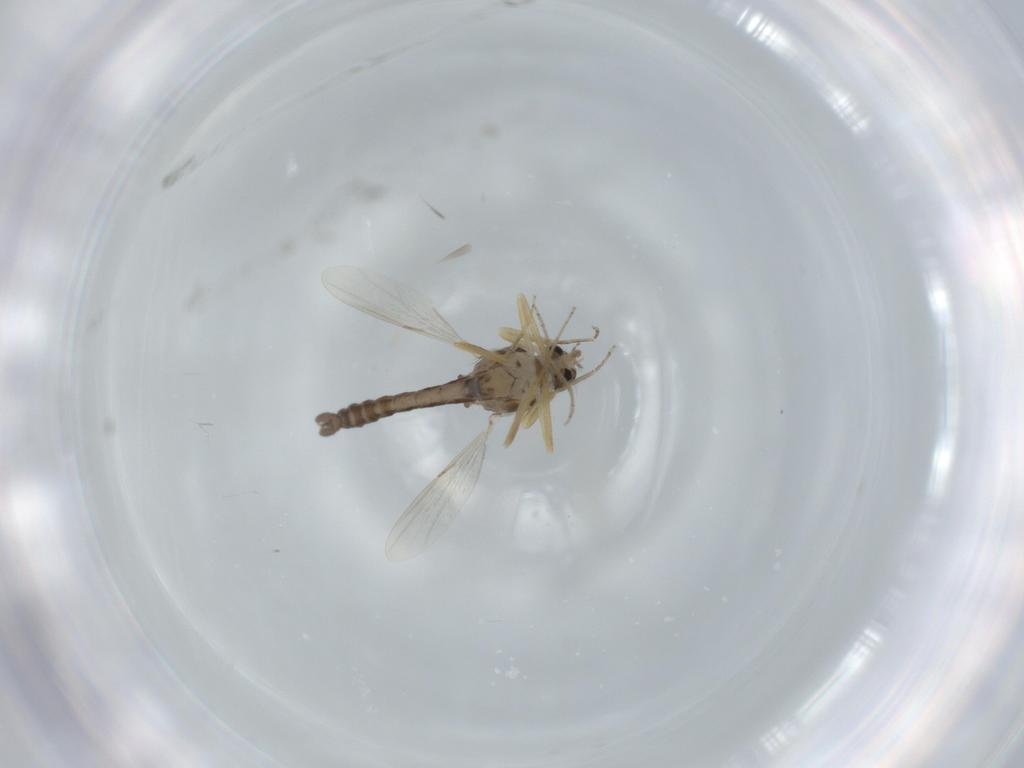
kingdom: Animalia
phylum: Arthropoda
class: Insecta
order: Diptera
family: Ceratopogonidae
